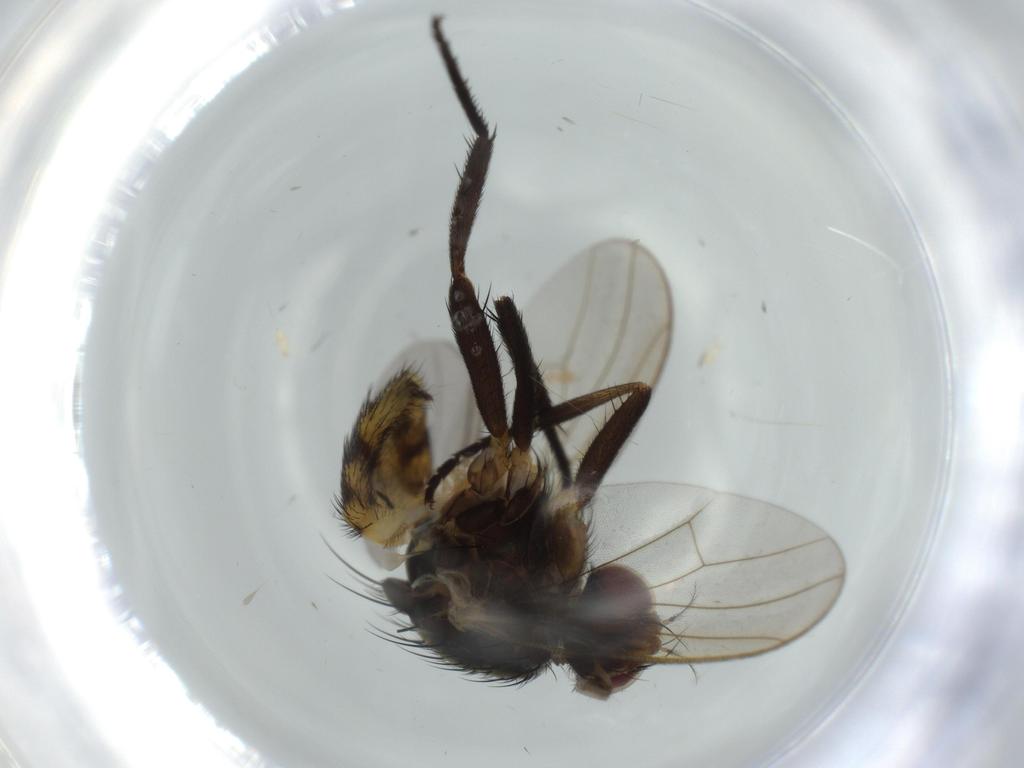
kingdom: Animalia
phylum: Arthropoda
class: Insecta
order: Diptera
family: Anthomyiidae
